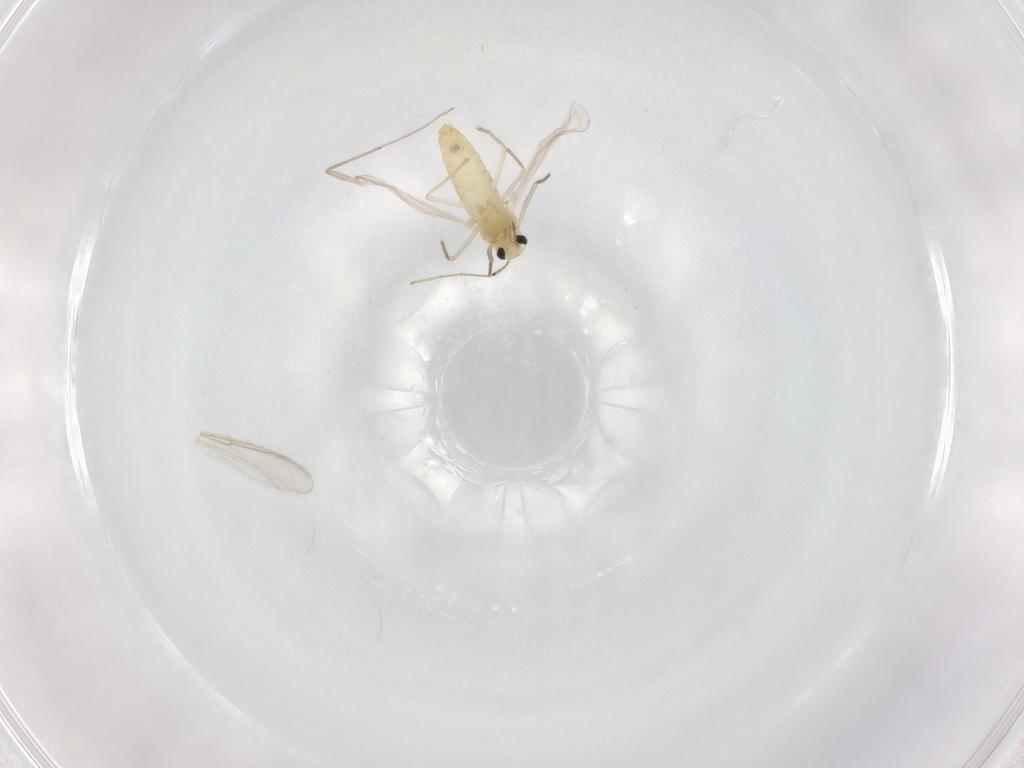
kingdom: Animalia
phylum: Arthropoda
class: Insecta
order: Diptera
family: Chironomidae
